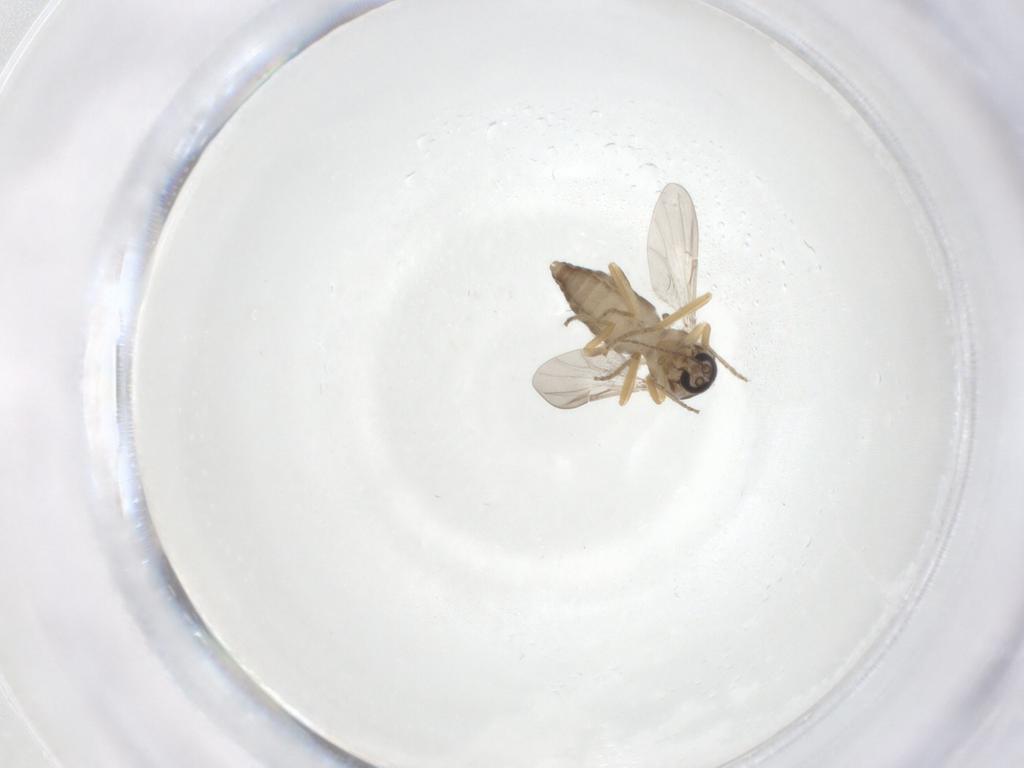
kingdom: Animalia
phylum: Arthropoda
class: Insecta
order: Diptera
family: Ceratopogonidae
